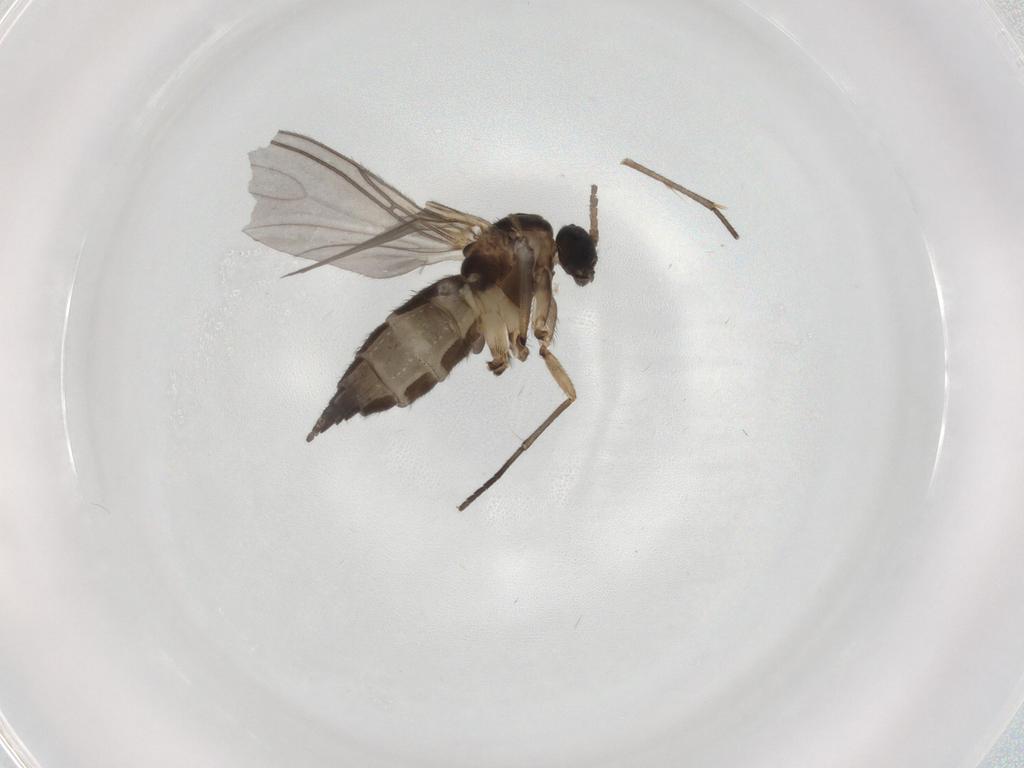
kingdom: Animalia
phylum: Arthropoda
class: Insecta
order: Diptera
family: Sciaridae
